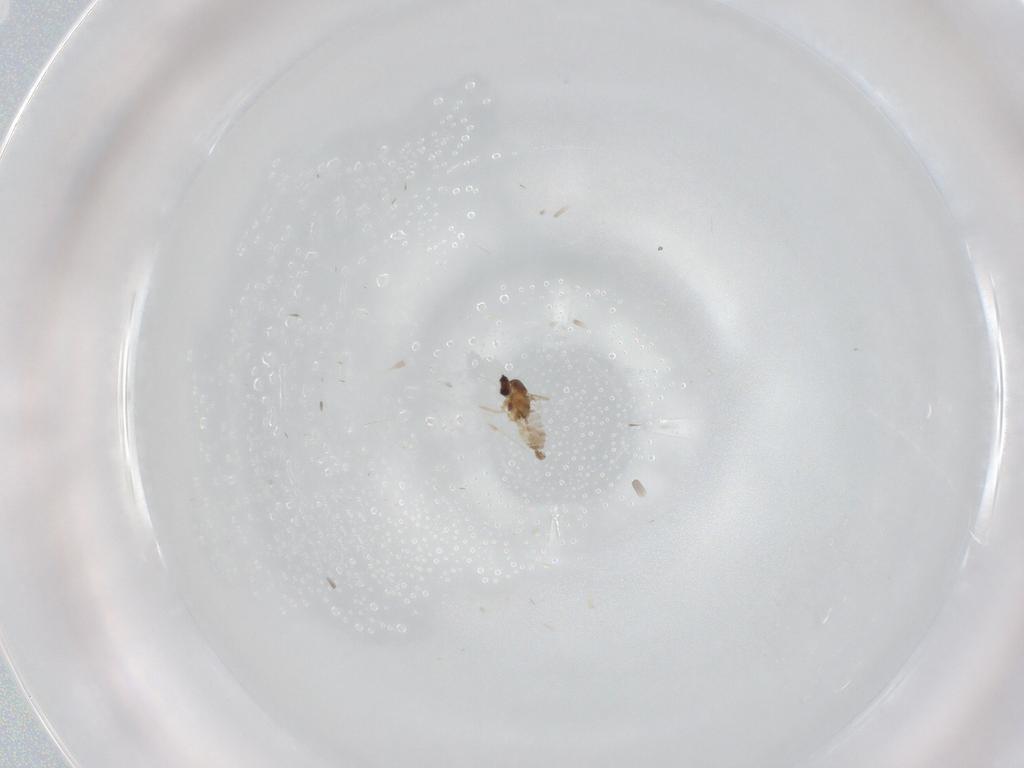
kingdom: Animalia
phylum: Arthropoda
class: Insecta
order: Diptera
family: Cecidomyiidae
